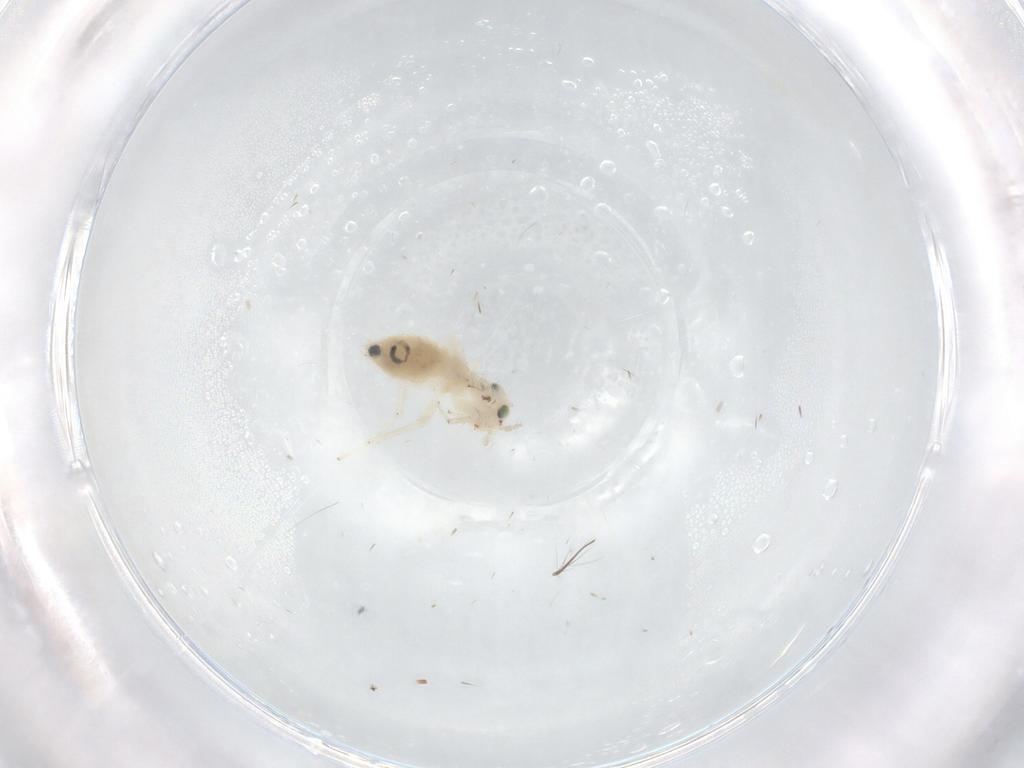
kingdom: Animalia
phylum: Arthropoda
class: Insecta
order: Psocodea
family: Lepidopsocidae
